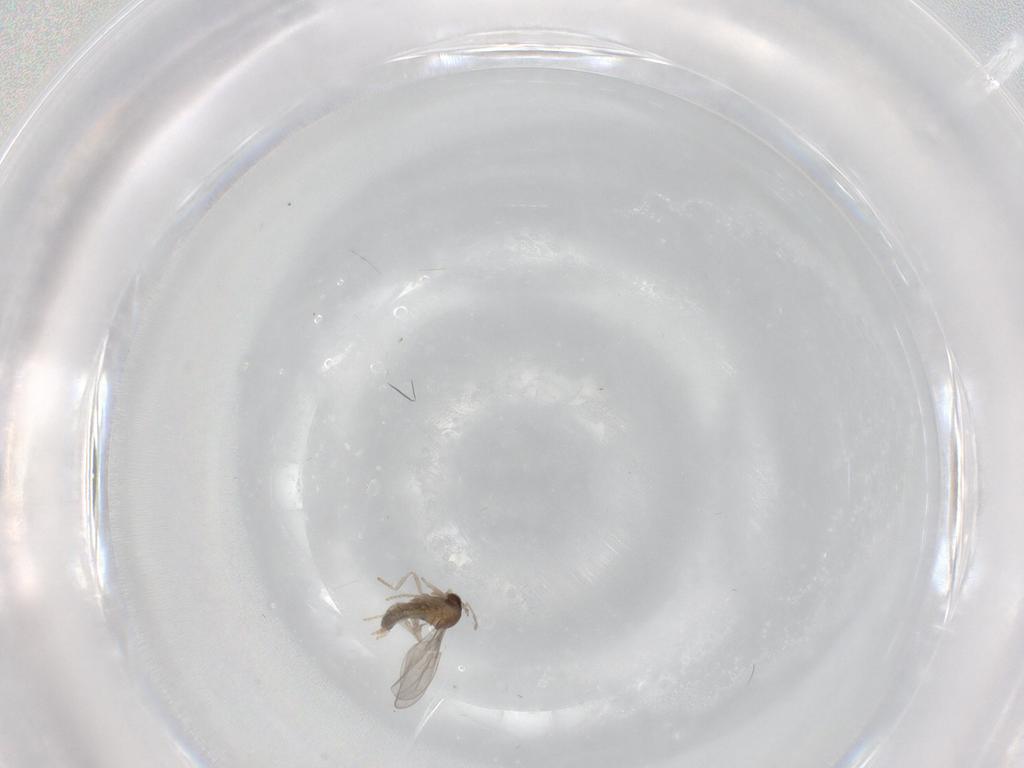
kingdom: Animalia
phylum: Arthropoda
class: Insecta
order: Diptera
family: Cecidomyiidae
